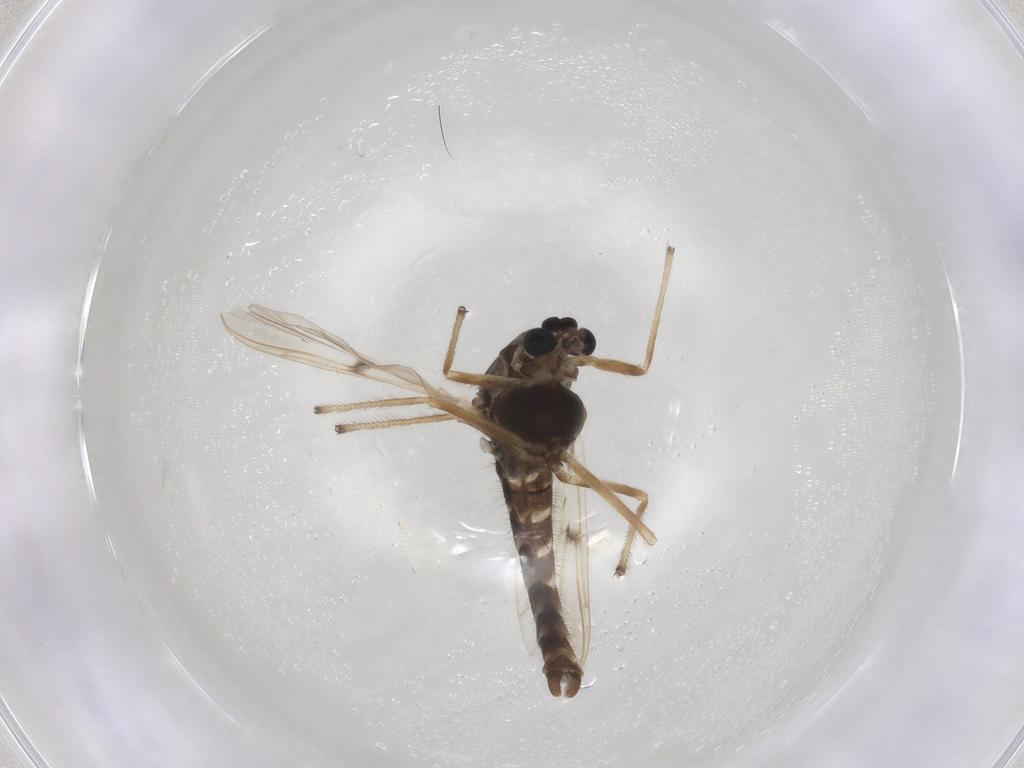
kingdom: Animalia
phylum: Arthropoda
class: Insecta
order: Diptera
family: Chironomidae
